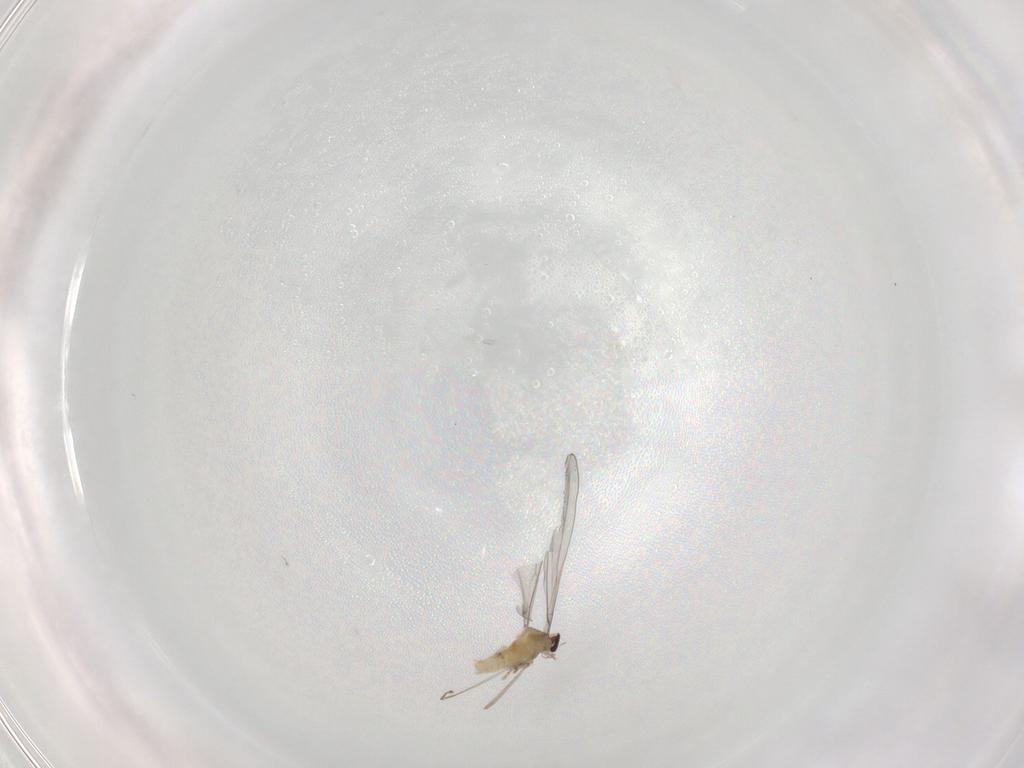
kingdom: Animalia
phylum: Arthropoda
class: Insecta
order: Diptera
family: Cecidomyiidae
